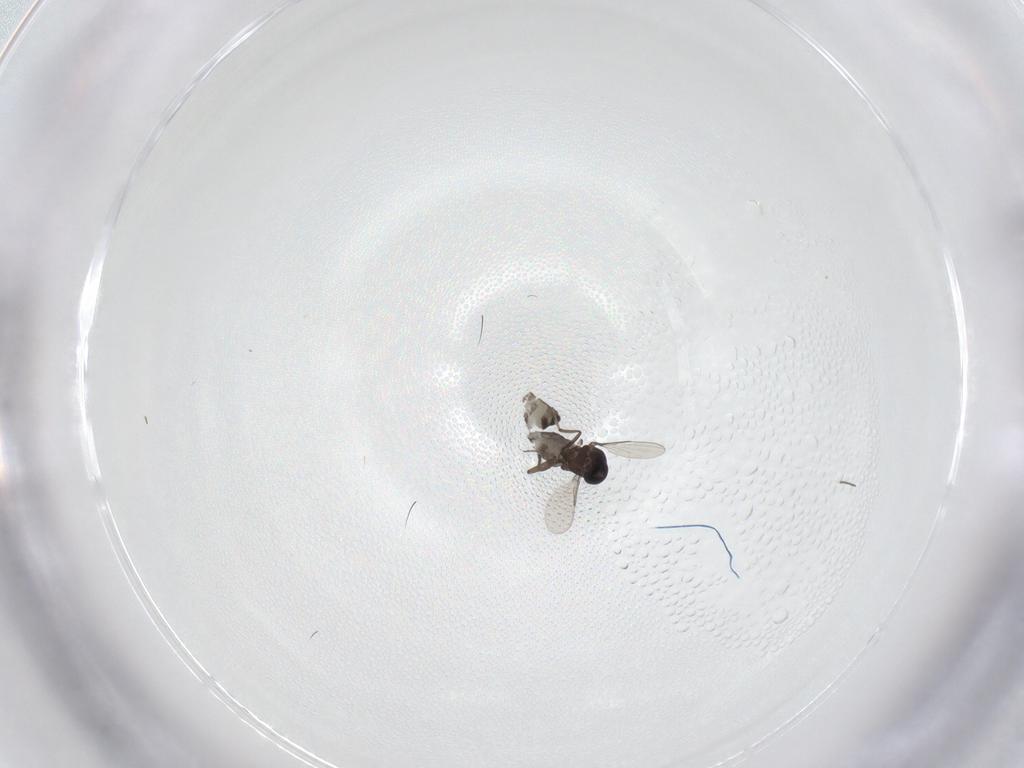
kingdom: Animalia
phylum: Arthropoda
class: Insecta
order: Diptera
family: Ceratopogonidae
